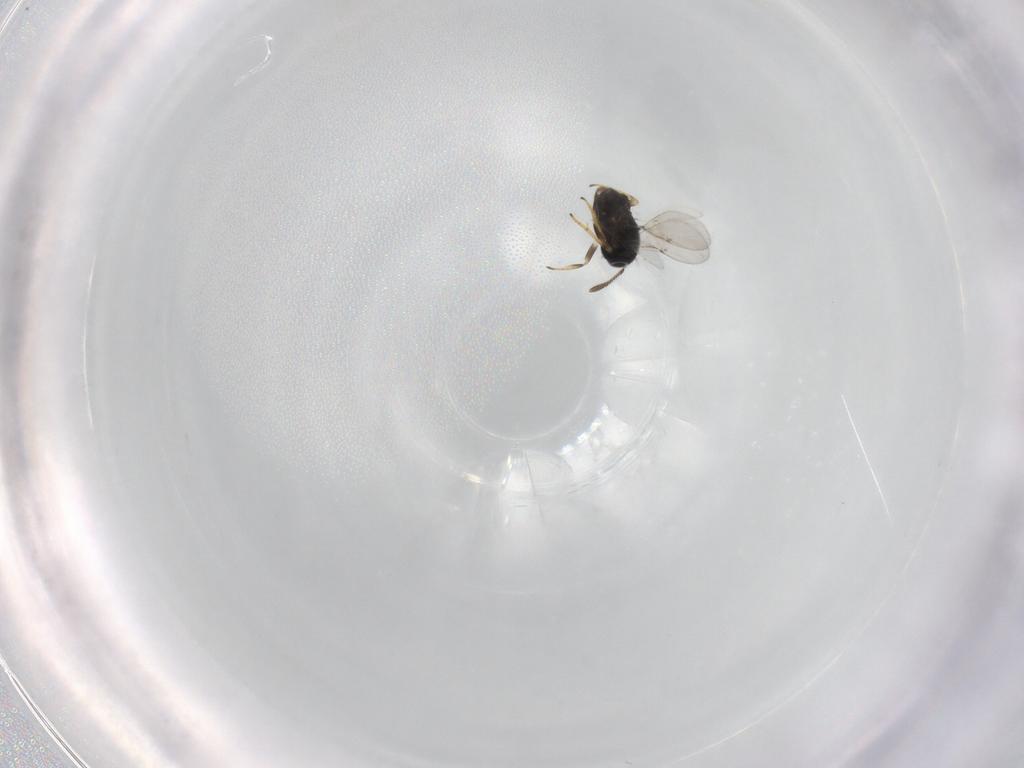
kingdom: Animalia
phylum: Arthropoda
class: Insecta
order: Hymenoptera
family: Encyrtidae
